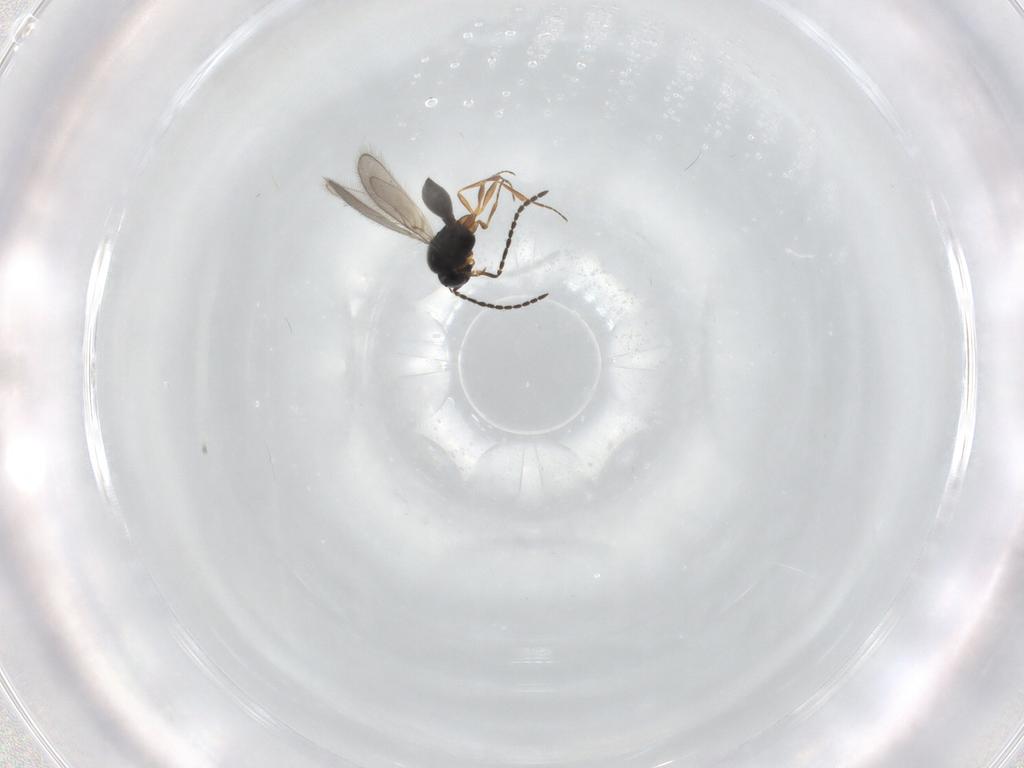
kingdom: Animalia
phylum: Arthropoda
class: Insecta
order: Hymenoptera
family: Scelionidae
